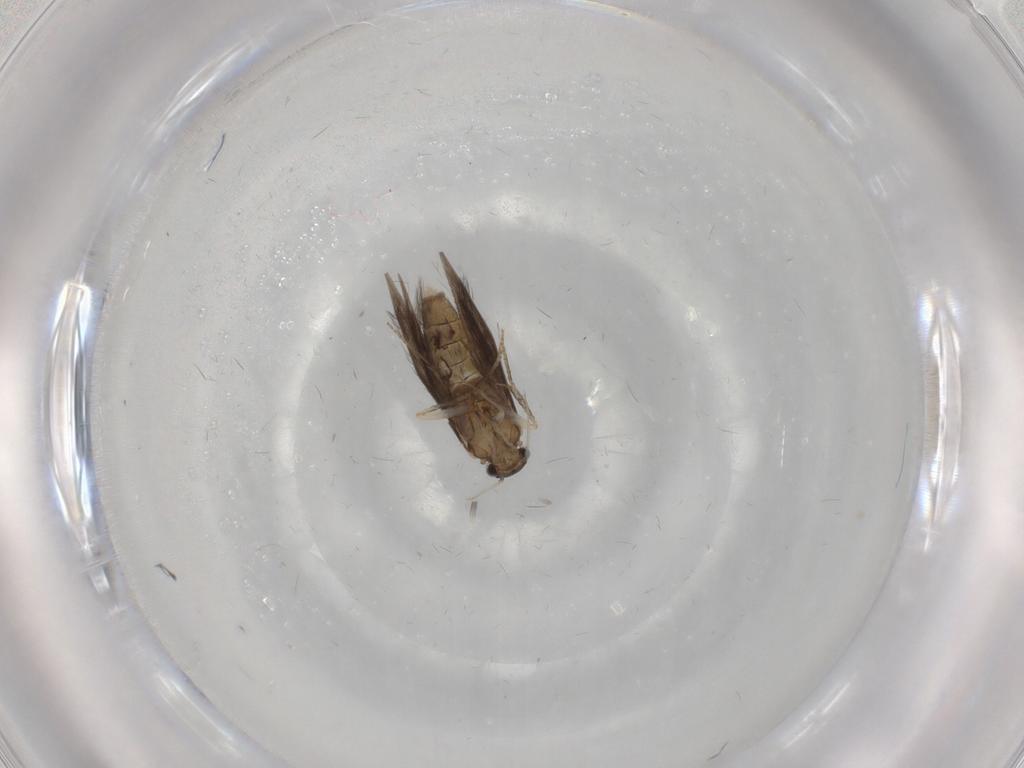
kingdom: Animalia
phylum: Arthropoda
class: Insecta
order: Trichoptera
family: Hydroptilidae
